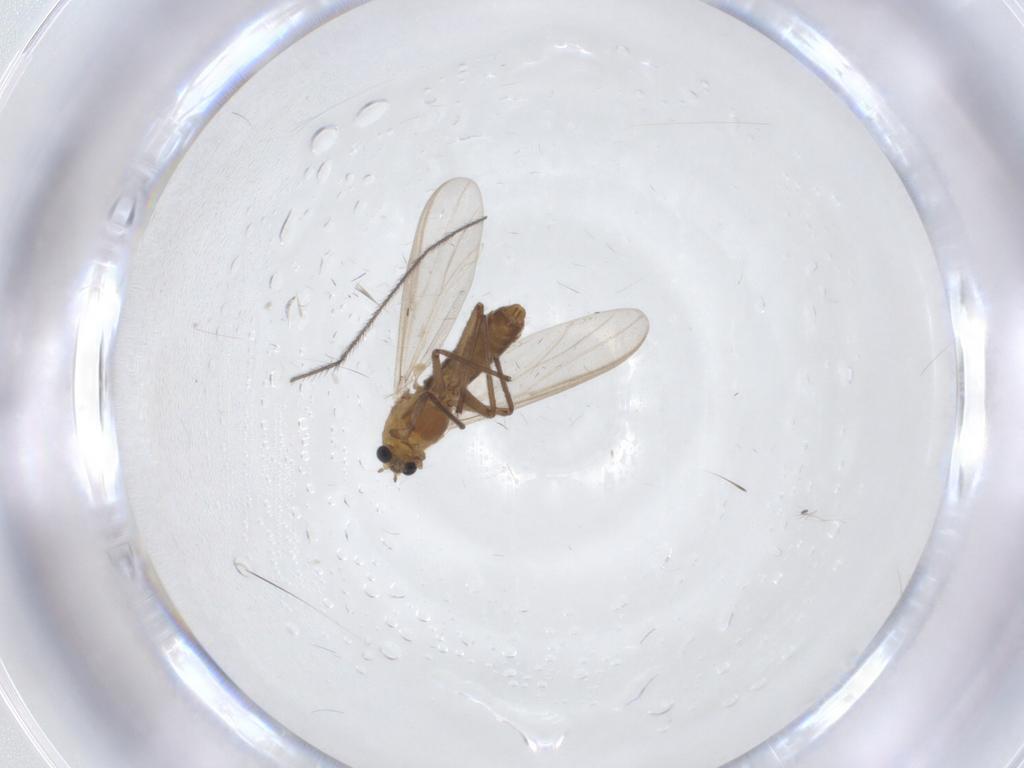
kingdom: Animalia
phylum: Arthropoda
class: Insecta
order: Diptera
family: Chironomidae
